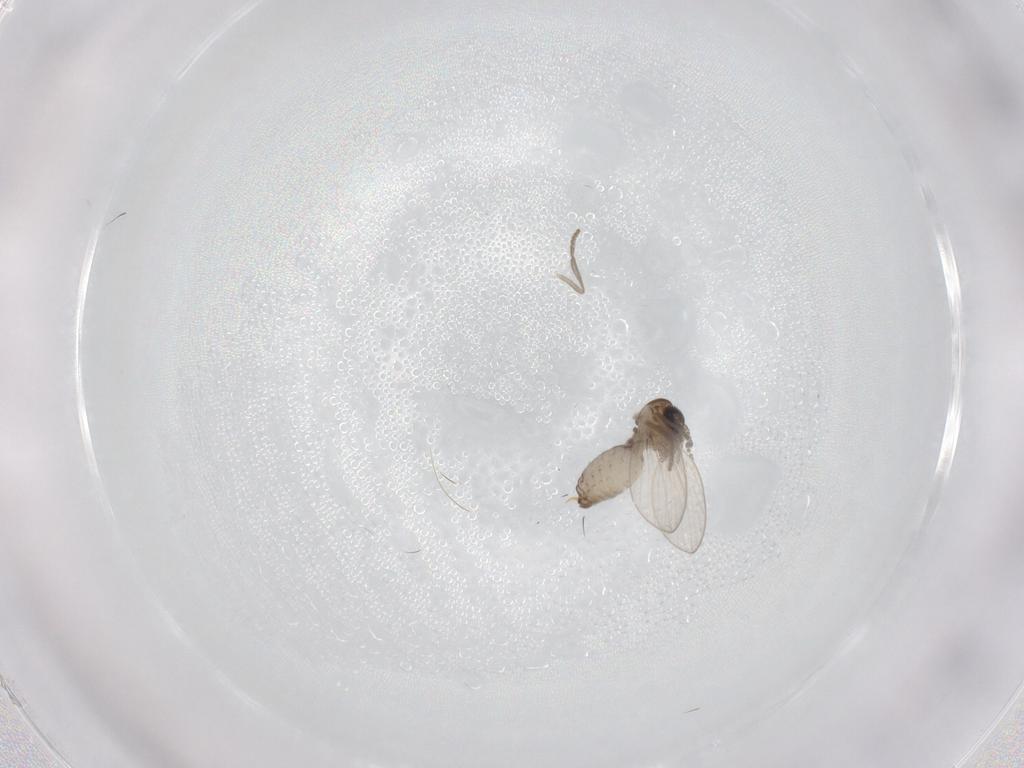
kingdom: Animalia
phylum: Arthropoda
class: Insecta
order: Diptera
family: Psychodidae
